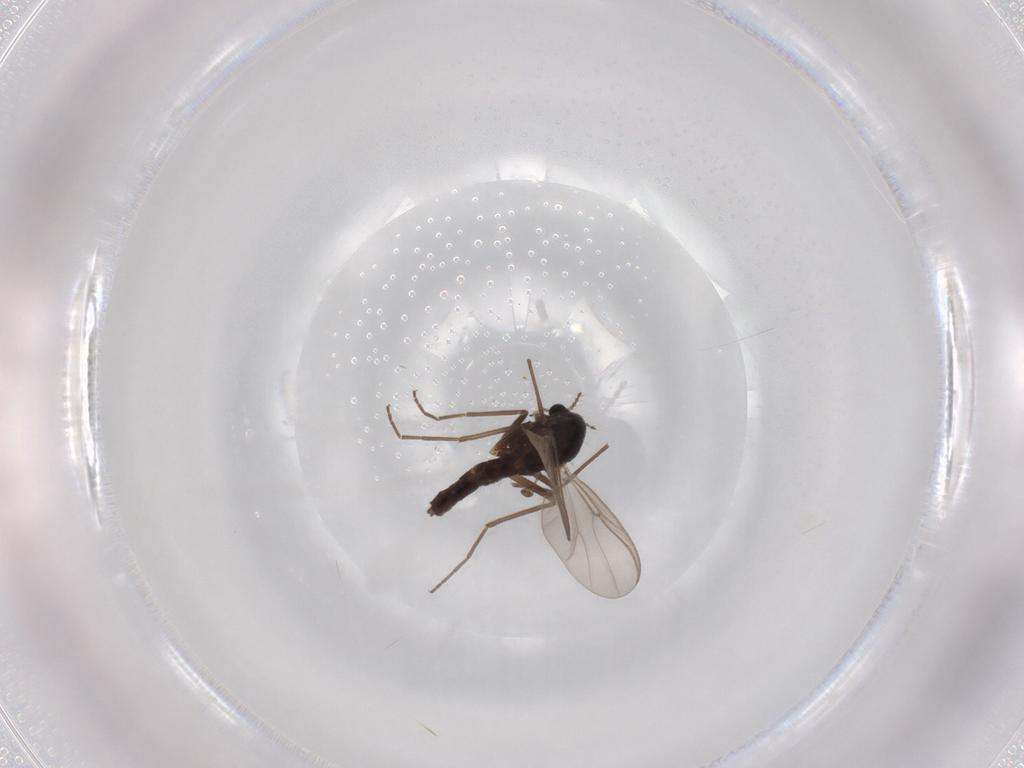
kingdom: Animalia
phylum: Arthropoda
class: Insecta
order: Diptera
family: Chironomidae
